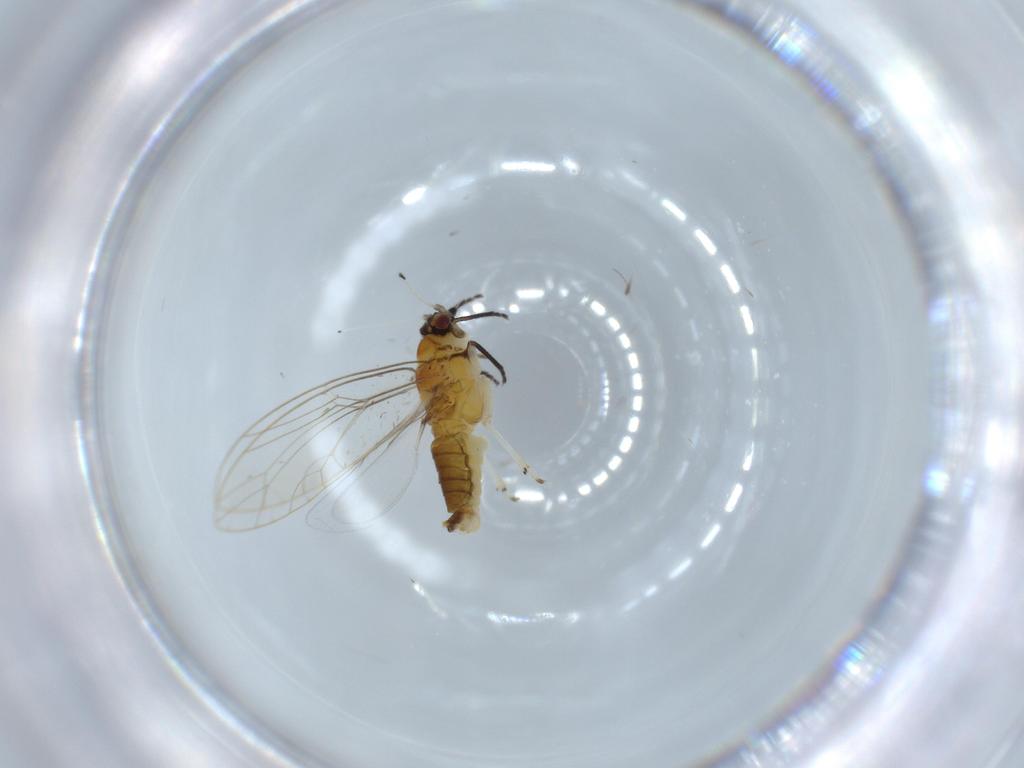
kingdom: Animalia
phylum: Arthropoda
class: Insecta
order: Hemiptera
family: Triozidae
